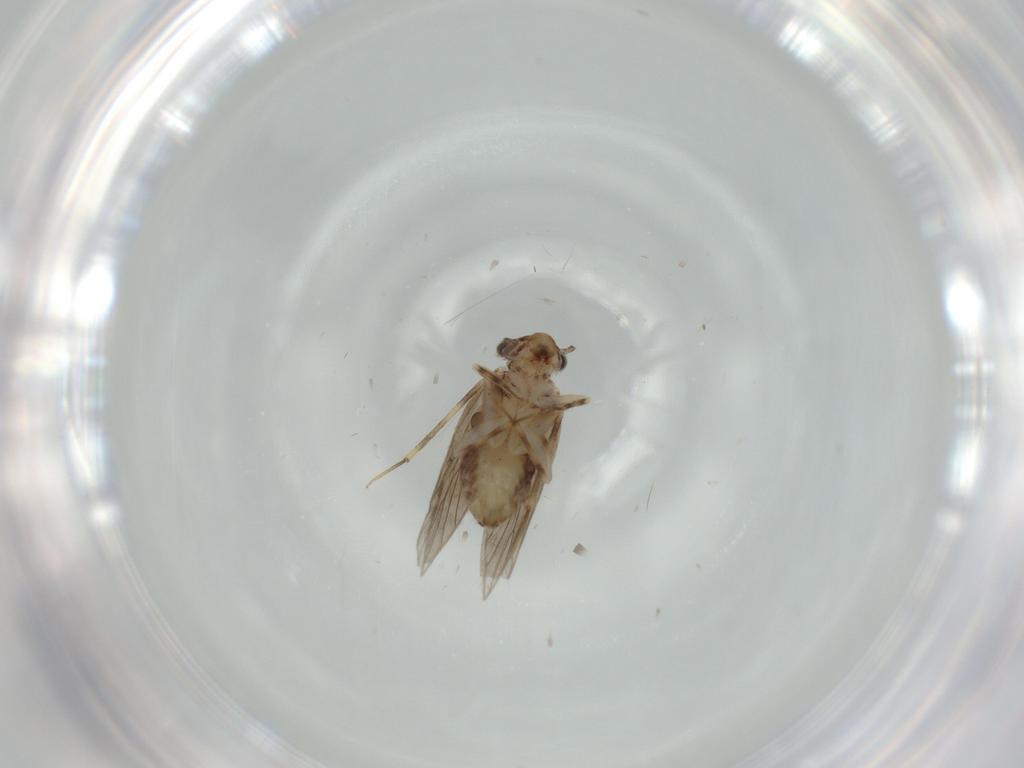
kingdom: Animalia
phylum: Arthropoda
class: Insecta
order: Psocodea
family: Lepidopsocidae
